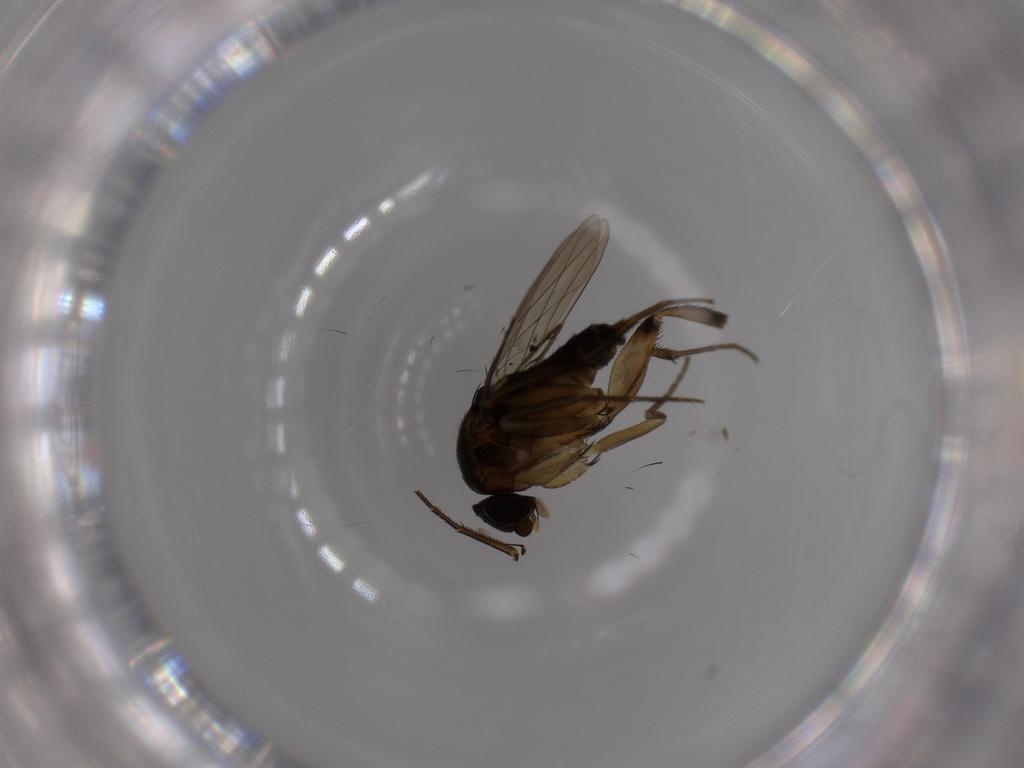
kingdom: Animalia
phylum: Arthropoda
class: Insecta
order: Diptera
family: Phoridae
